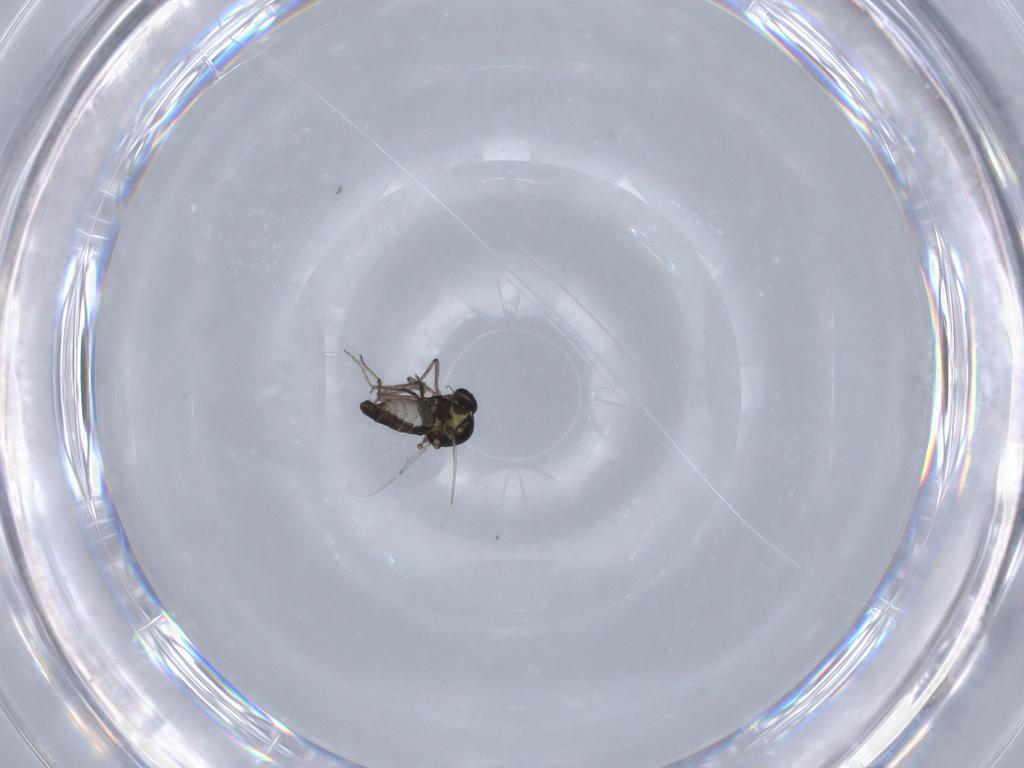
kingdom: Animalia
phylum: Arthropoda
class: Insecta
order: Diptera
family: Ceratopogonidae
